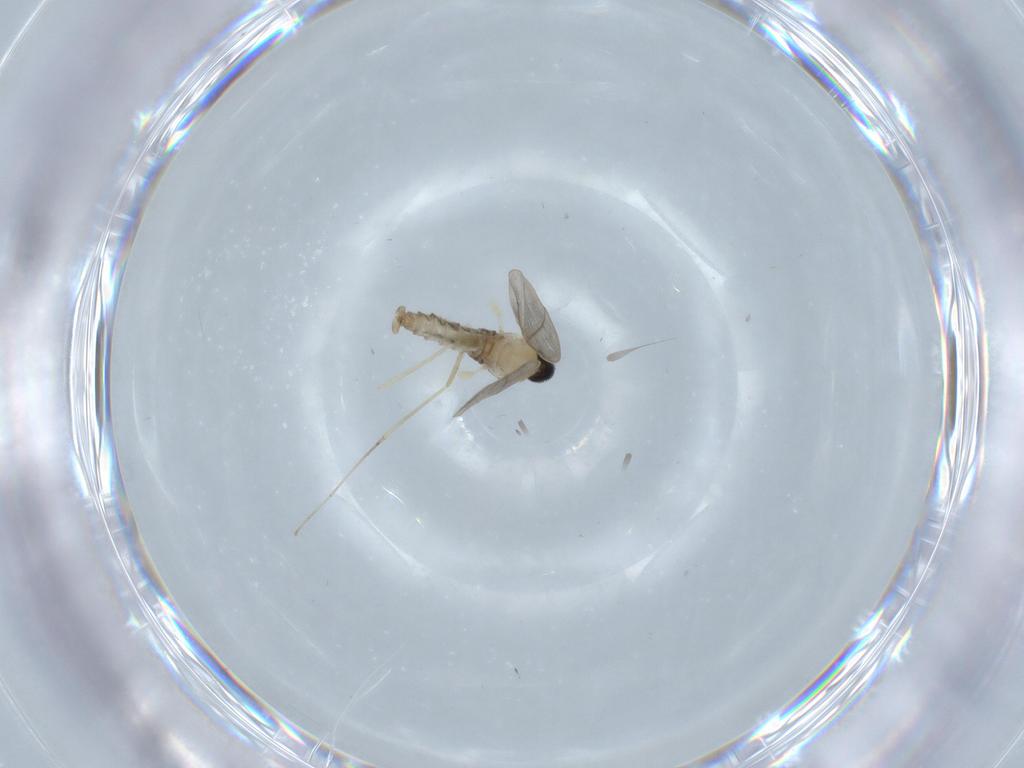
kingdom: Animalia
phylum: Arthropoda
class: Insecta
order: Diptera
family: Cecidomyiidae
